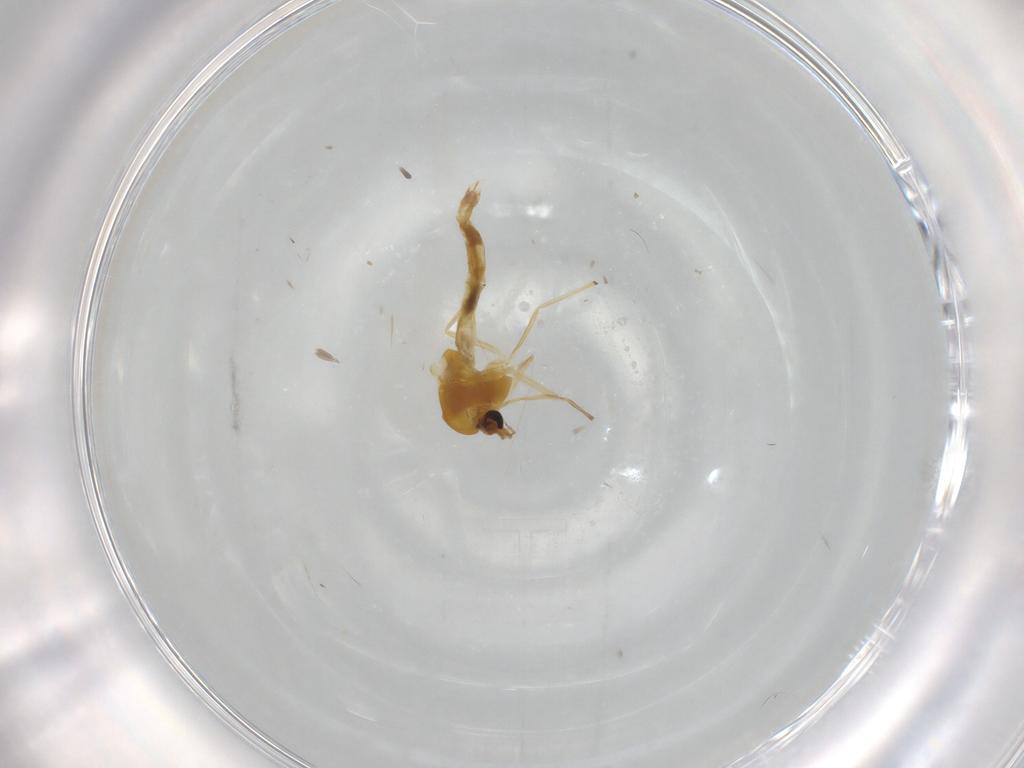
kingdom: Animalia
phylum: Arthropoda
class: Insecta
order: Diptera
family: Chironomidae
